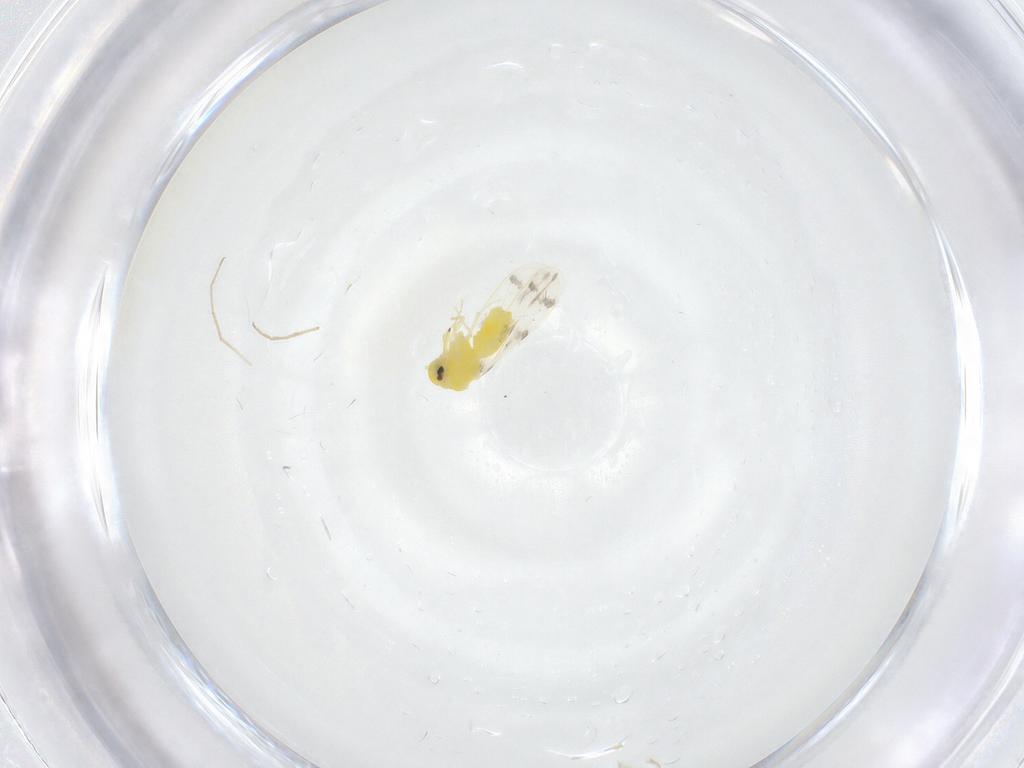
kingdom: Animalia
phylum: Arthropoda
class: Insecta
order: Hemiptera
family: Aleyrodidae
